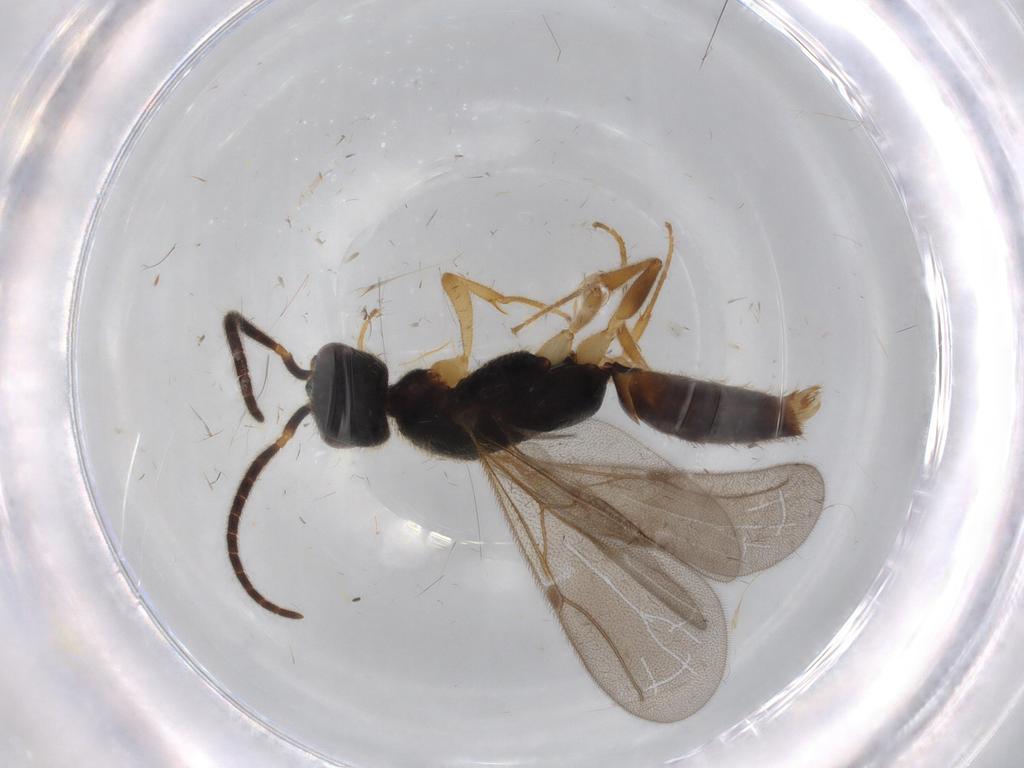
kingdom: Animalia
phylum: Arthropoda
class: Insecta
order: Hymenoptera
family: Bethylidae
